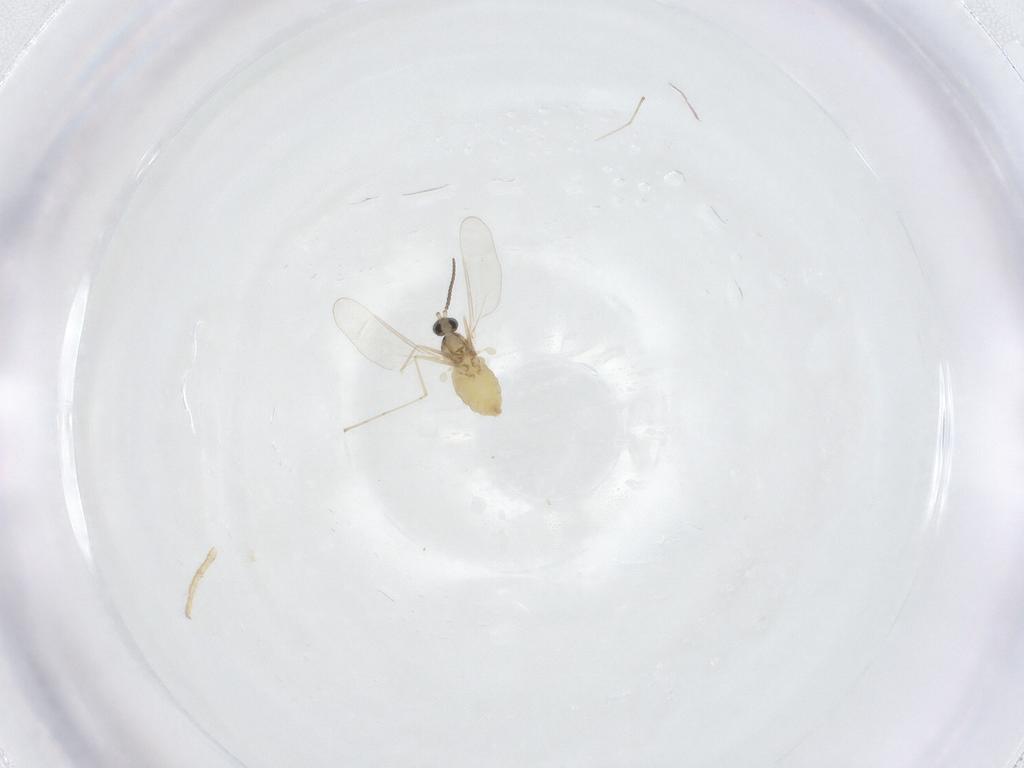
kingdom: Animalia
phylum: Arthropoda
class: Insecta
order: Diptera
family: Cecidomyiidae
